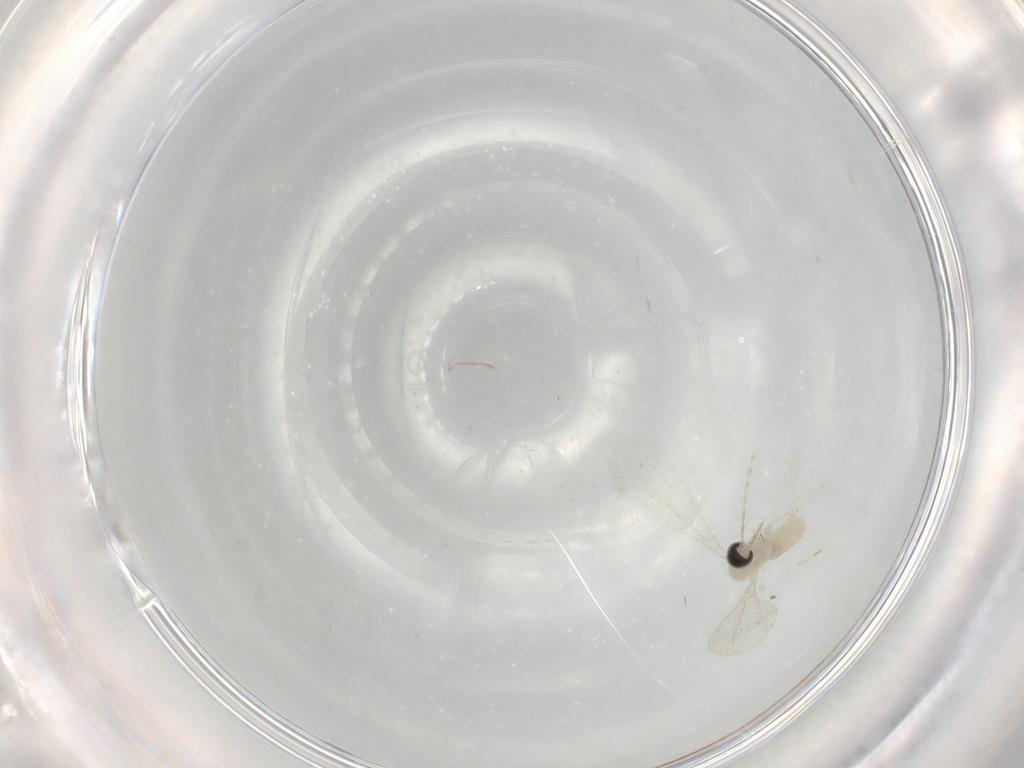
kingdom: Animalia
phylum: Arthropoda
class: Insecta
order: Diptera
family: Cecidomyiidae
